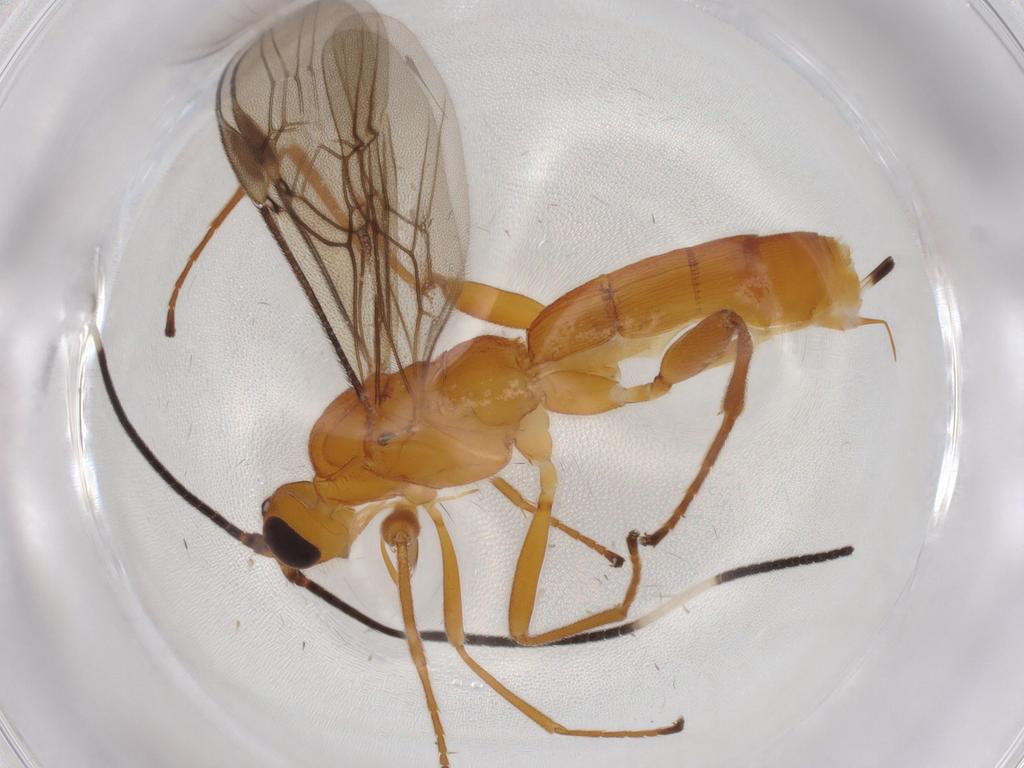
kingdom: Animalia
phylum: Arthropoda
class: Insecta
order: Hymenoptera
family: Braconidae
